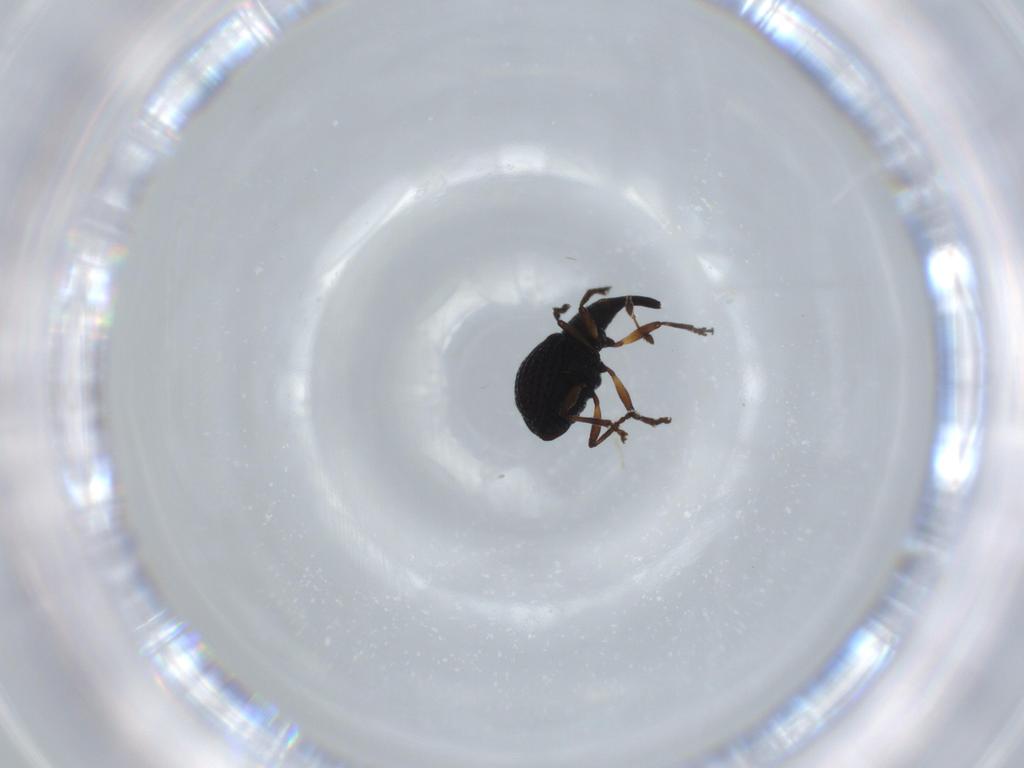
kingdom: Animalia
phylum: Arthropoda
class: Insecta
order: Coleoptera
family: Brentidae
